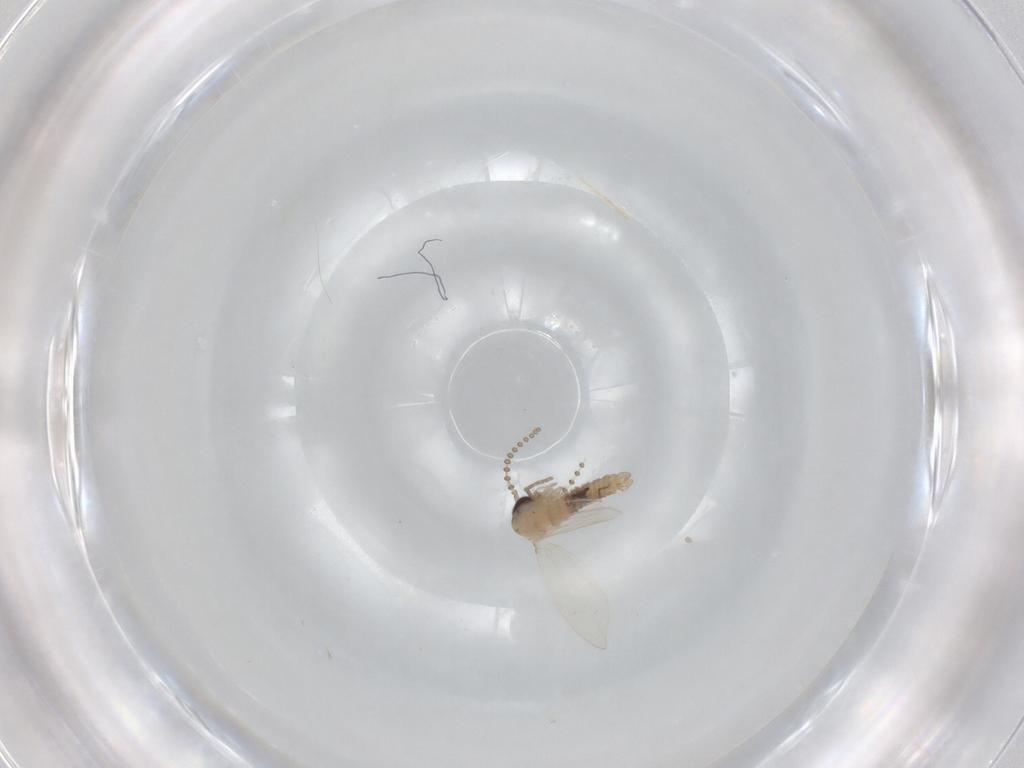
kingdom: Animalia
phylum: Arthropoda
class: Insecta
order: Diptera
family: Psychodidae
